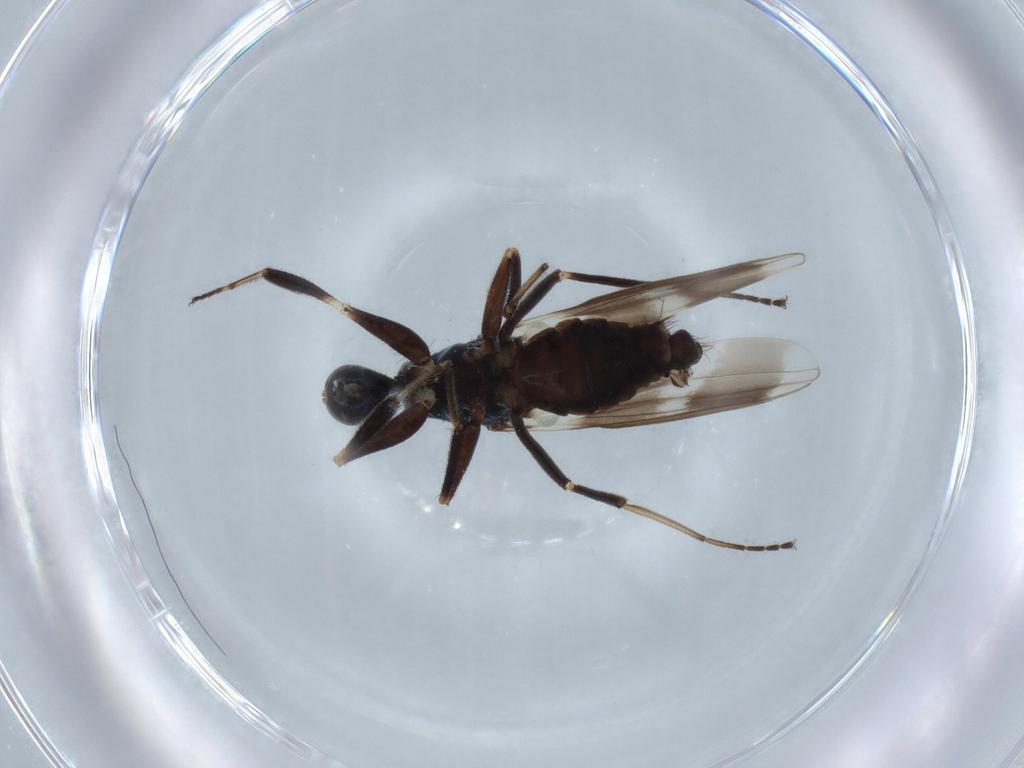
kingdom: Animalia
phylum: Arthropoda
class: Insecta
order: Diptera
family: Hybotidae
